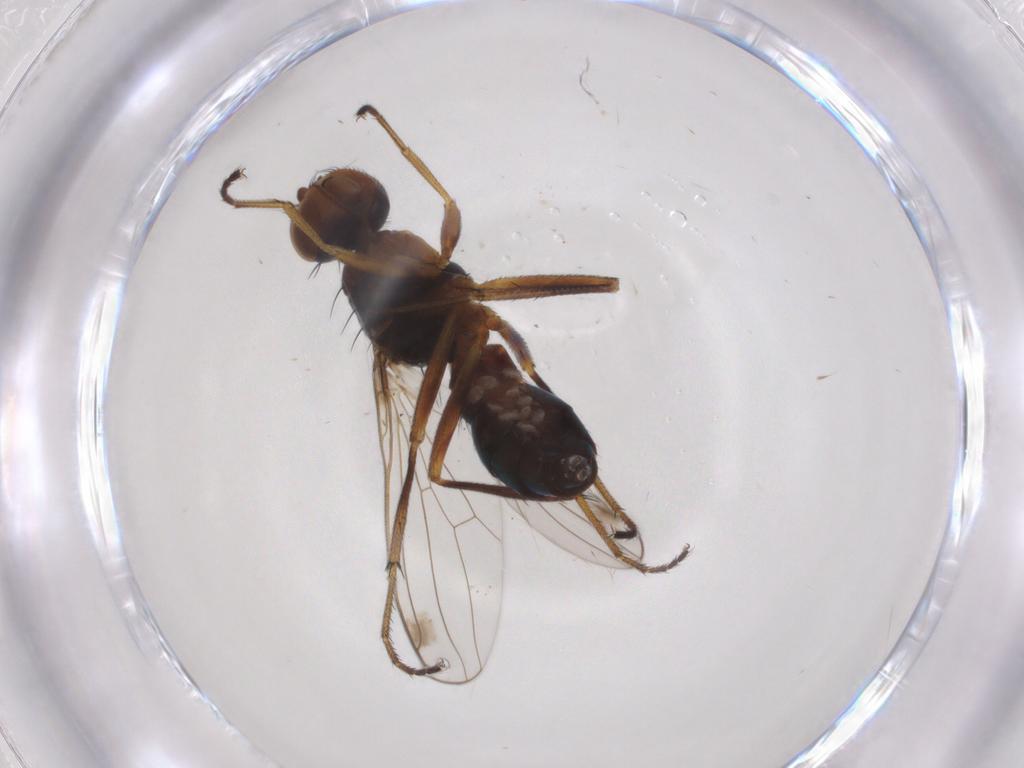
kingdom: Animalia
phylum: Arthropoda
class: Insecta
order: Diptera
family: Sepsidae
